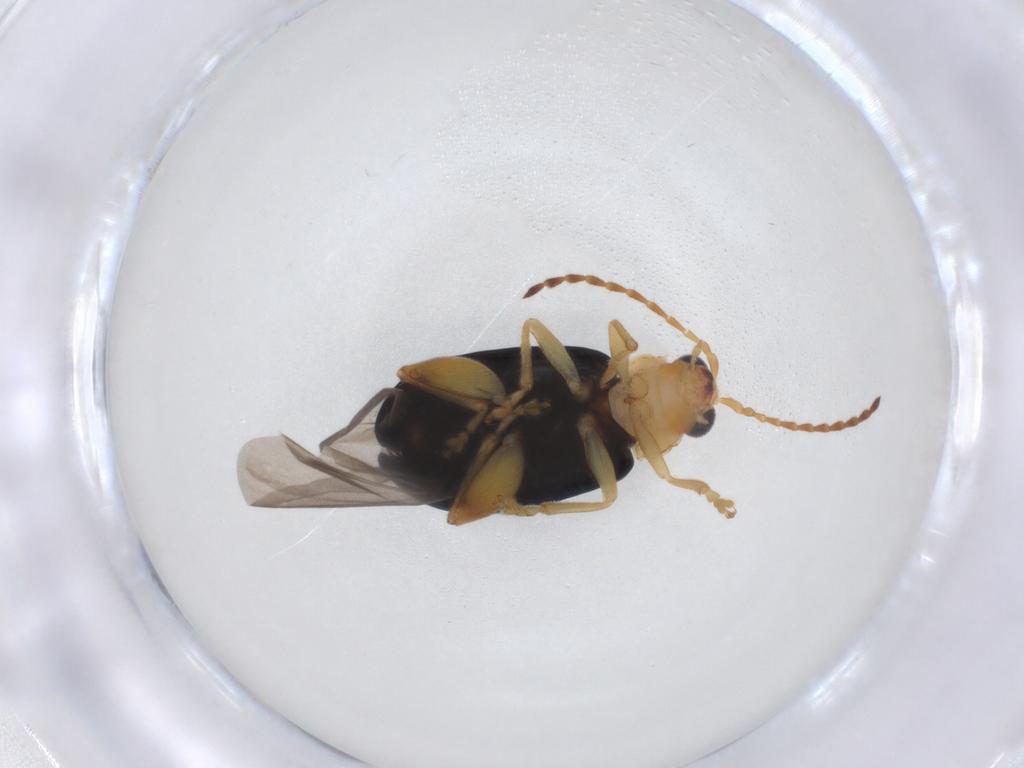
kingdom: Animalia
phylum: Arthropoda
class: Insecta
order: Coleoptera
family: Chrysomelidae
